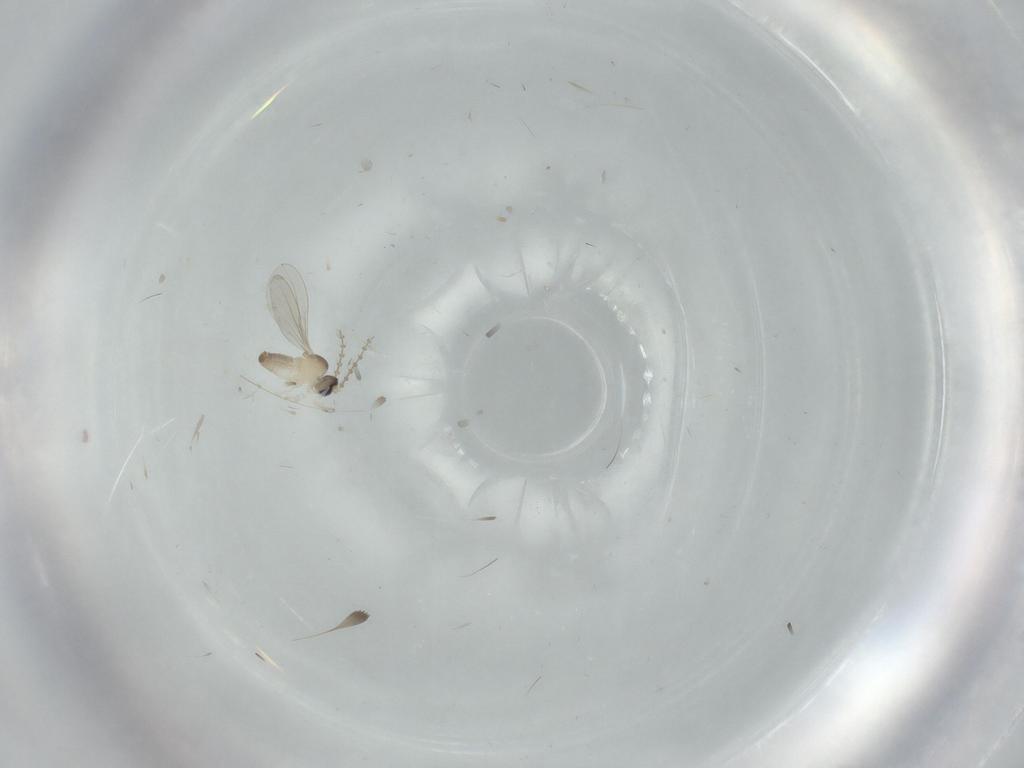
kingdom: Animalia
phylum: Arthropoda
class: Insecta
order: Diptera
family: Cecidomyiidae
